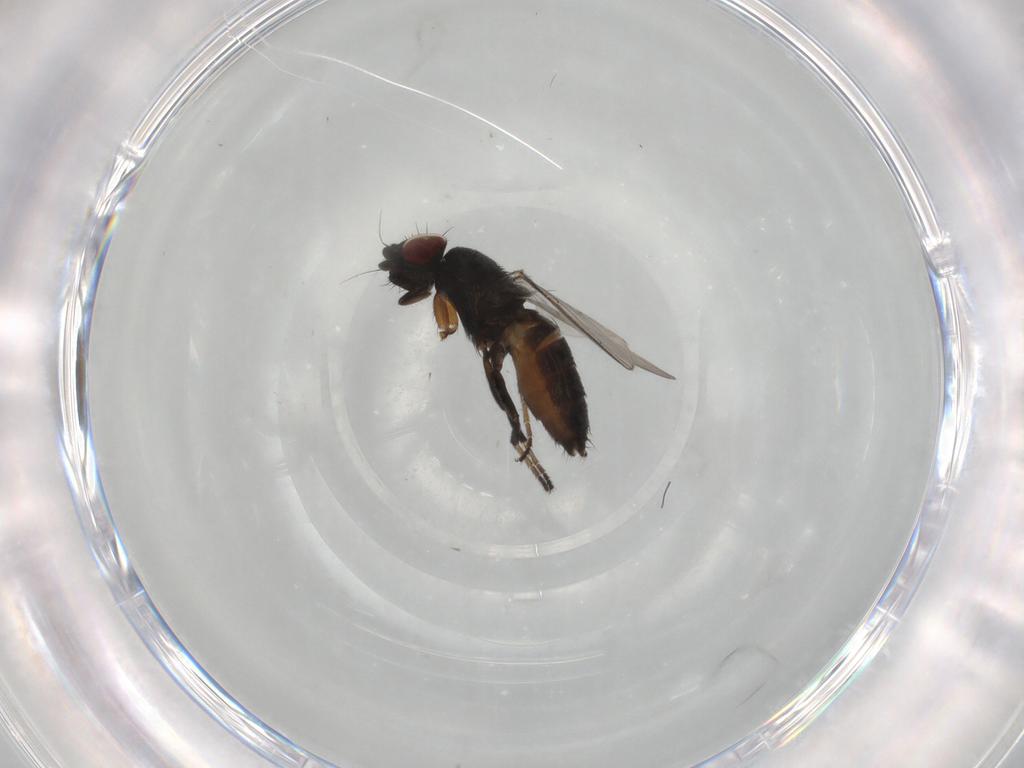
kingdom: Animalia
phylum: Arthropoda
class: Insecta
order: Diptera
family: Milichiidae
